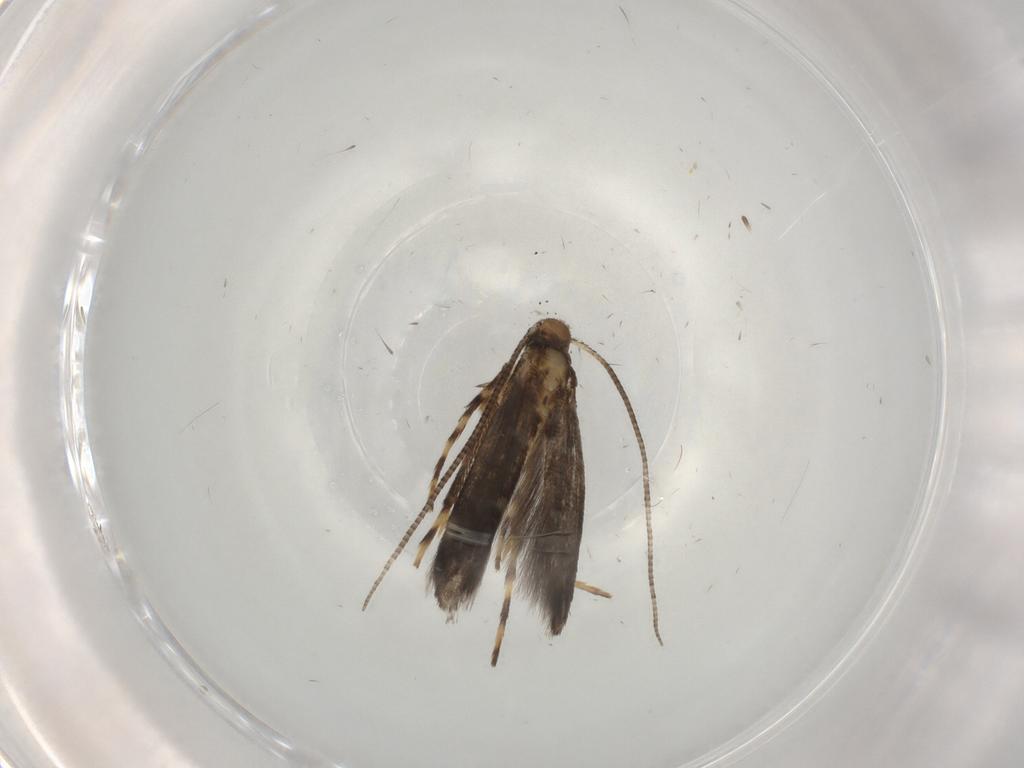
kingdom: Animalia
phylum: Arthropoda
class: Insecta
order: Lepidoptera
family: Gracillariidae
